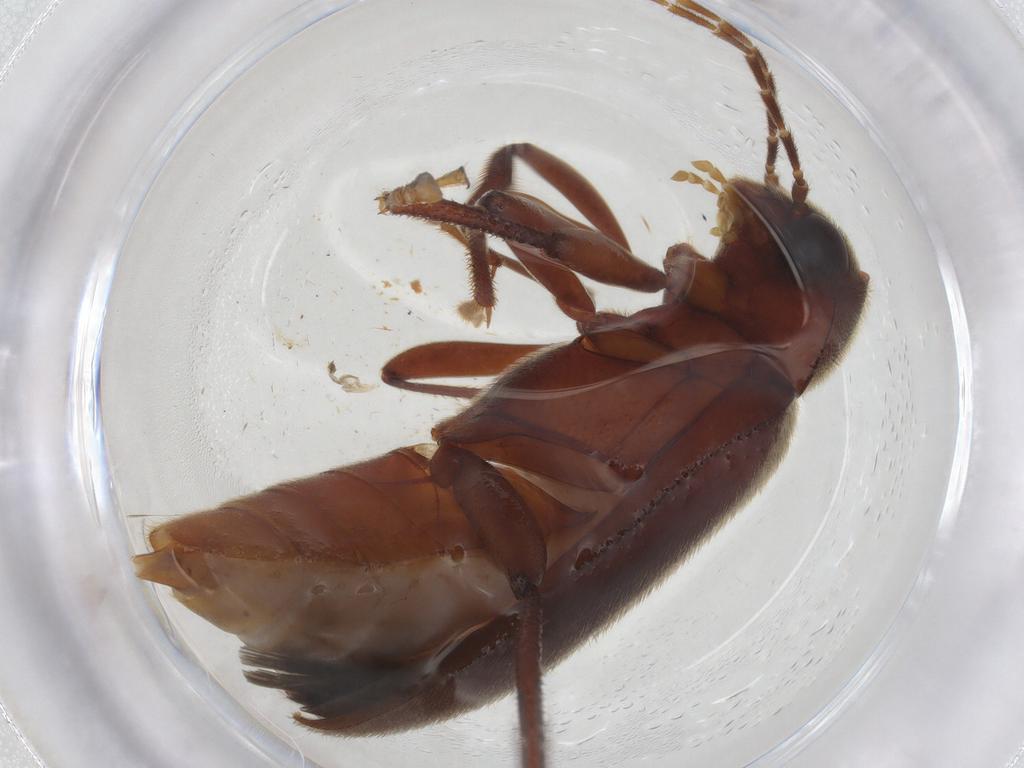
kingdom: Animalia
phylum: Arthropoda
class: Insecta
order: Coleoptera
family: Ptilodactylidae
